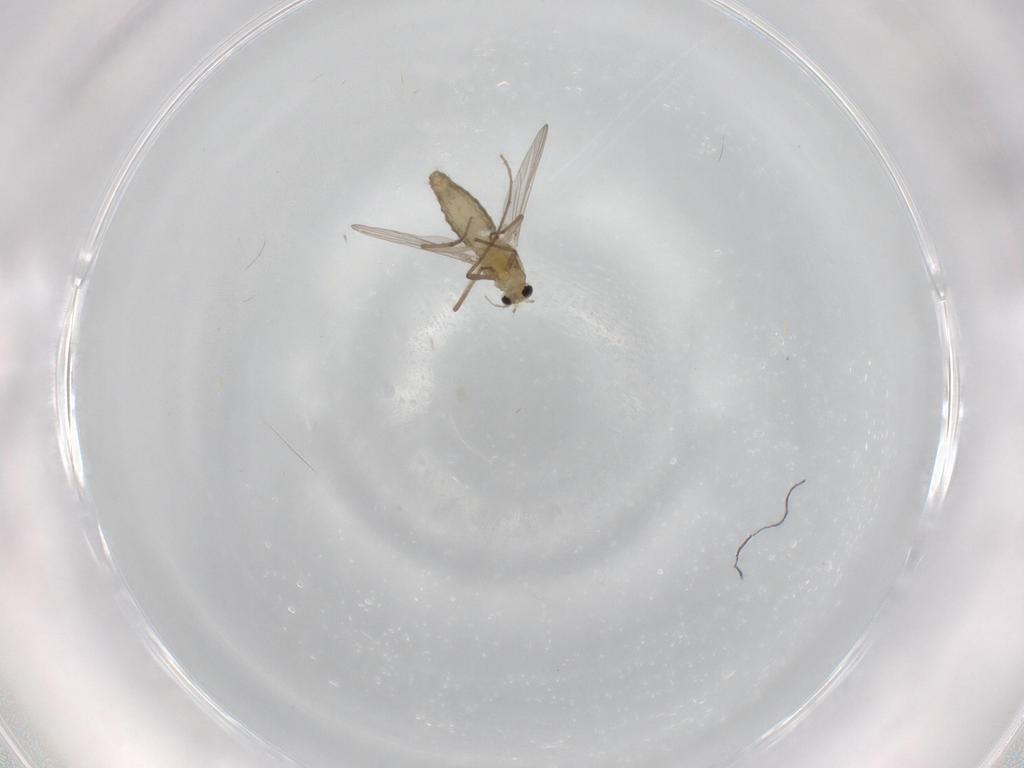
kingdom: Animalia
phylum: Arthropoda
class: Insecta
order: Diptera
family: Chironomidae
